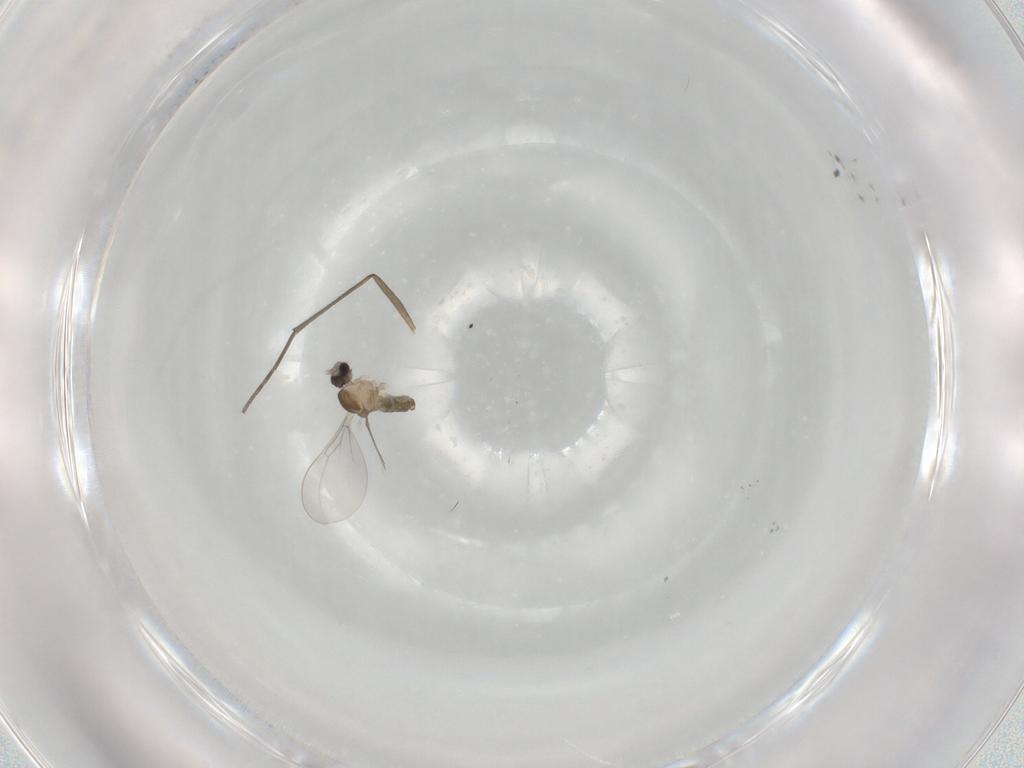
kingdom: Animalia
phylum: Arthropoda
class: Insecta
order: Diptera
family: Cecidomyiidae
